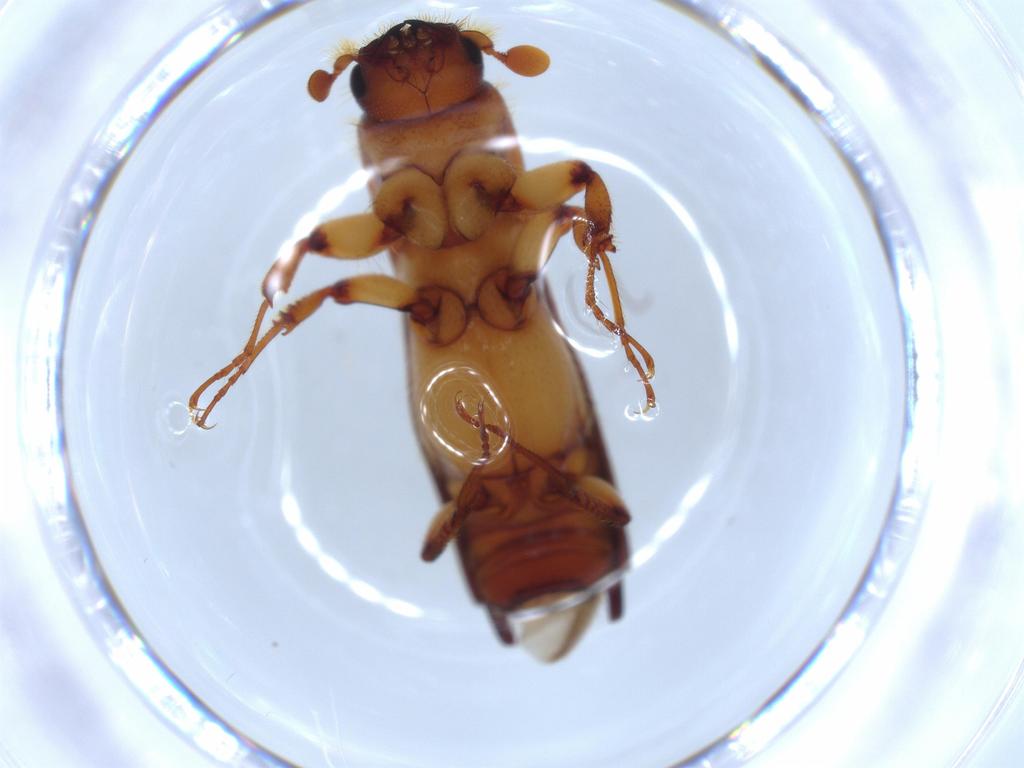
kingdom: Animalia
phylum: Arthropoda
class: Insecta
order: Coleoptera
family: Curculionidae
